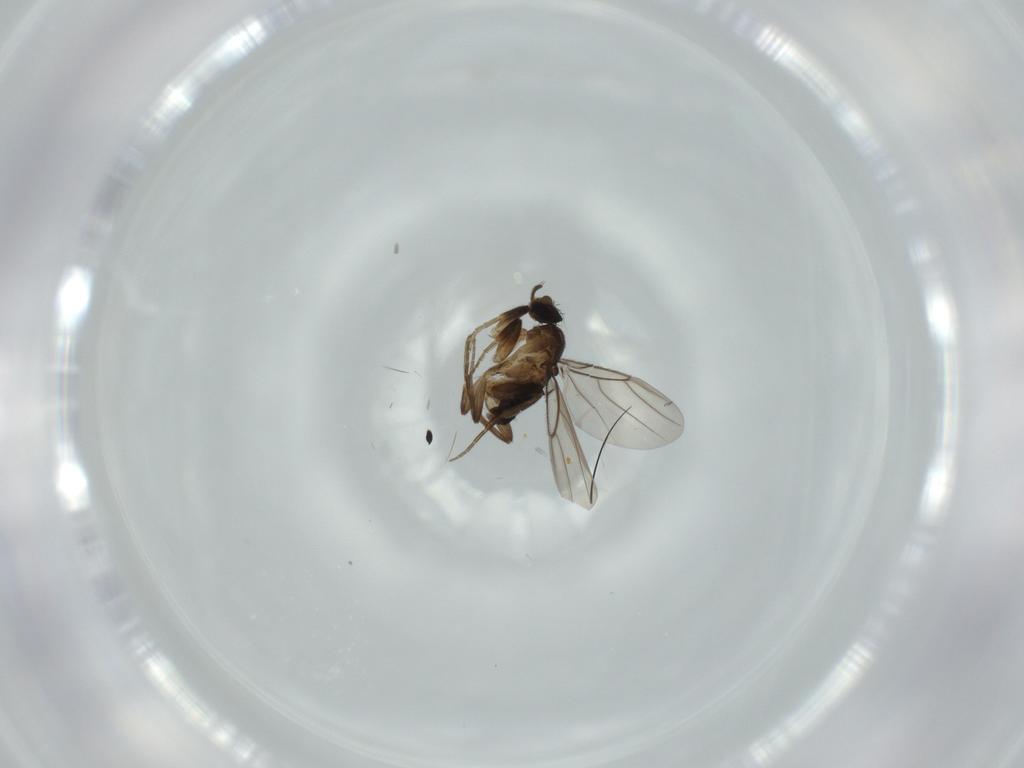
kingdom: Animalia
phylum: Arthropoda
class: Insecta
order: Diptera
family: Phoridae
